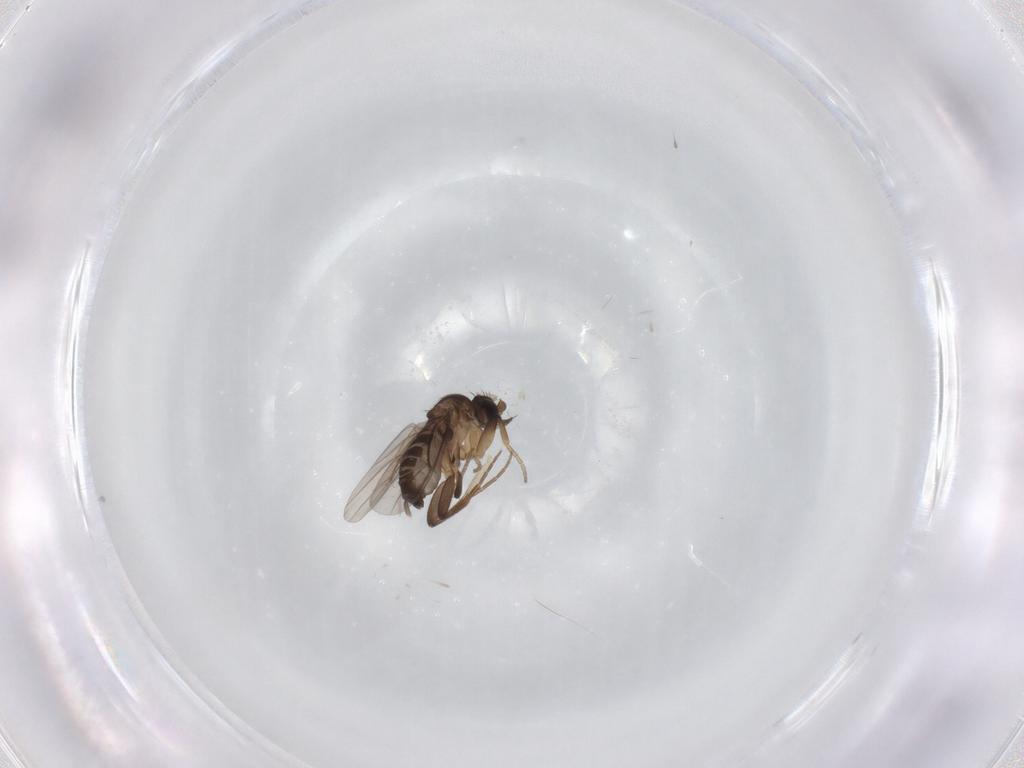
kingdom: Animalia
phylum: Arthropoda
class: Insecta
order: Diptera
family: Phoridae
